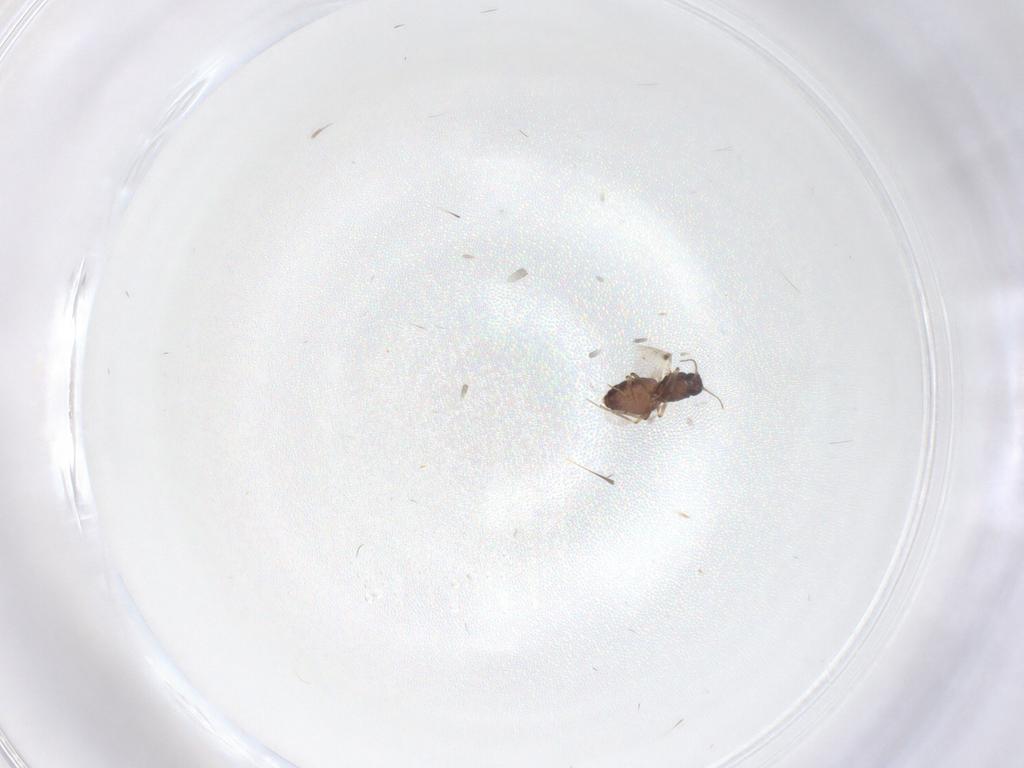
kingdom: Animalia
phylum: Arthropoda
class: Insecta
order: Diptera
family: Tabanidae
